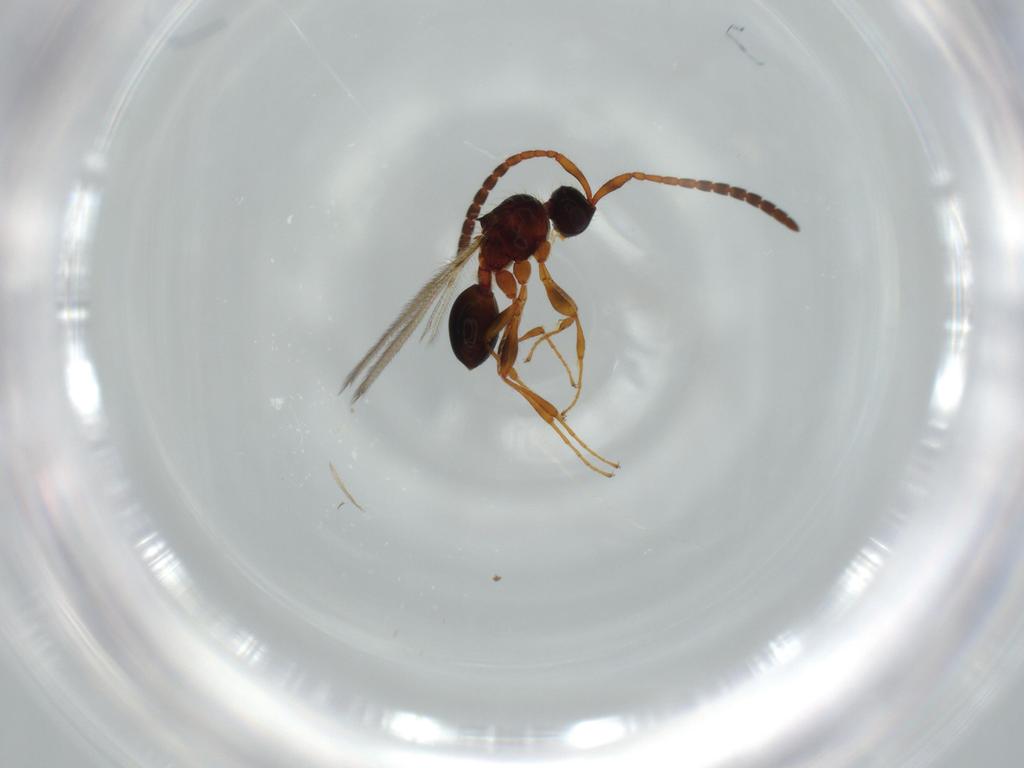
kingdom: Animalia
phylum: Arthropoda
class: Insecta
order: Hymenoptera
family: Diapriidae
